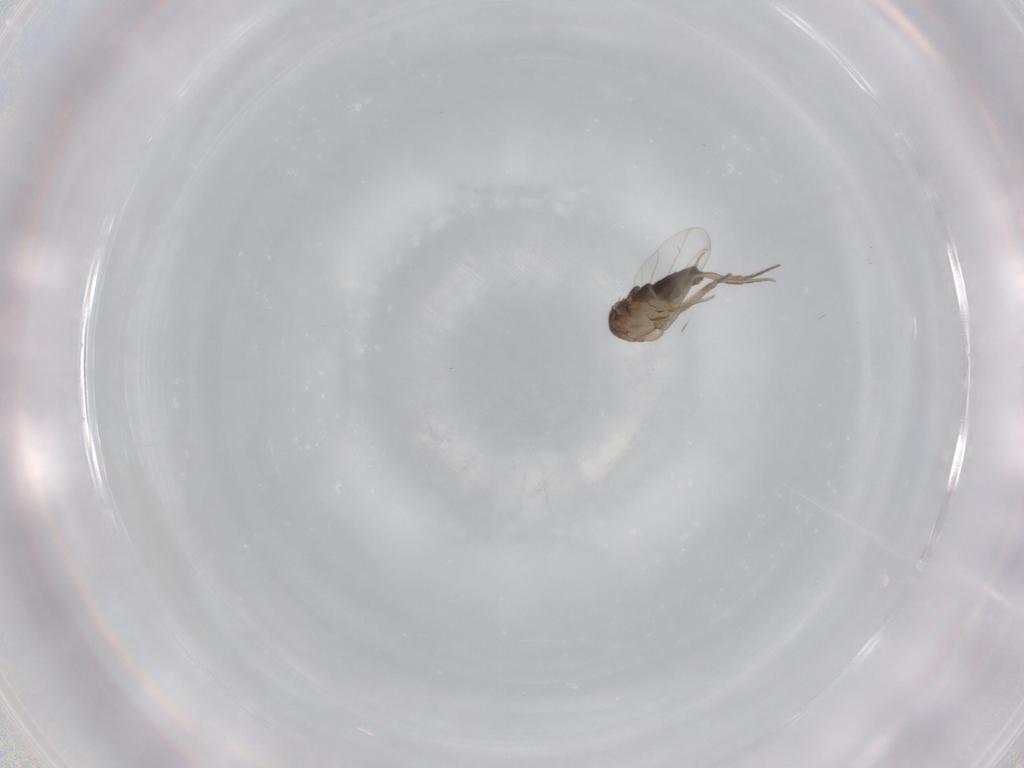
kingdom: Animalia
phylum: Arthropoda
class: Insecta
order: Diptera
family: Phoridae
